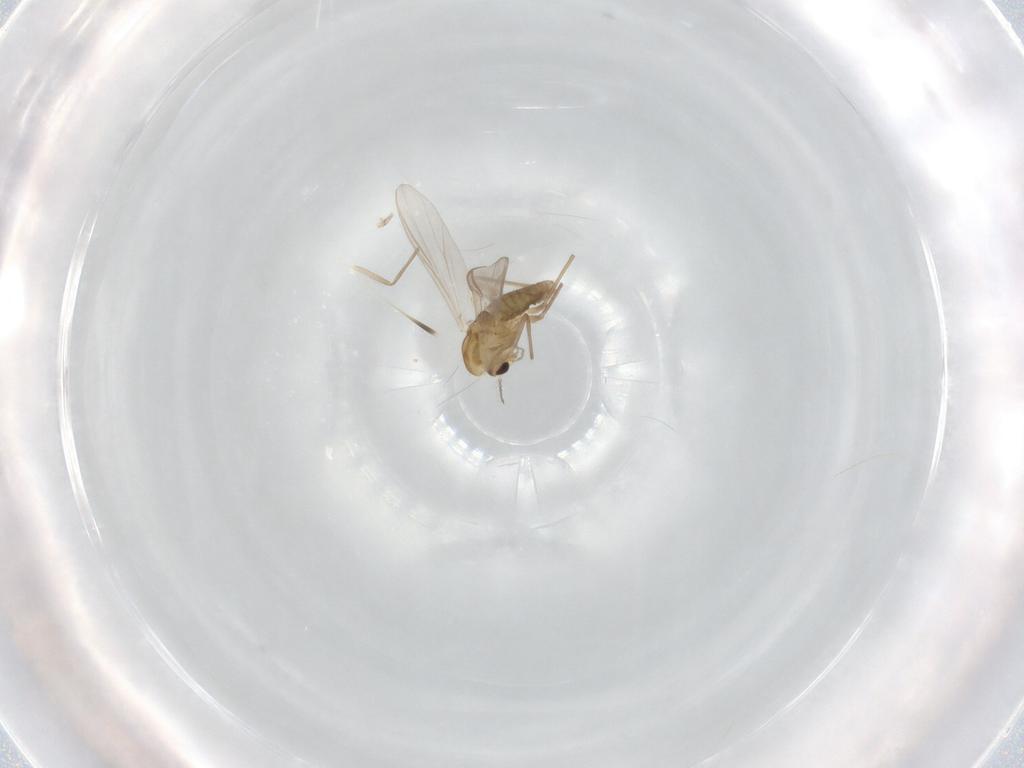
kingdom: Animalia
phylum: Arthropoda
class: Insecta
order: Diptera
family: Chironomidae
